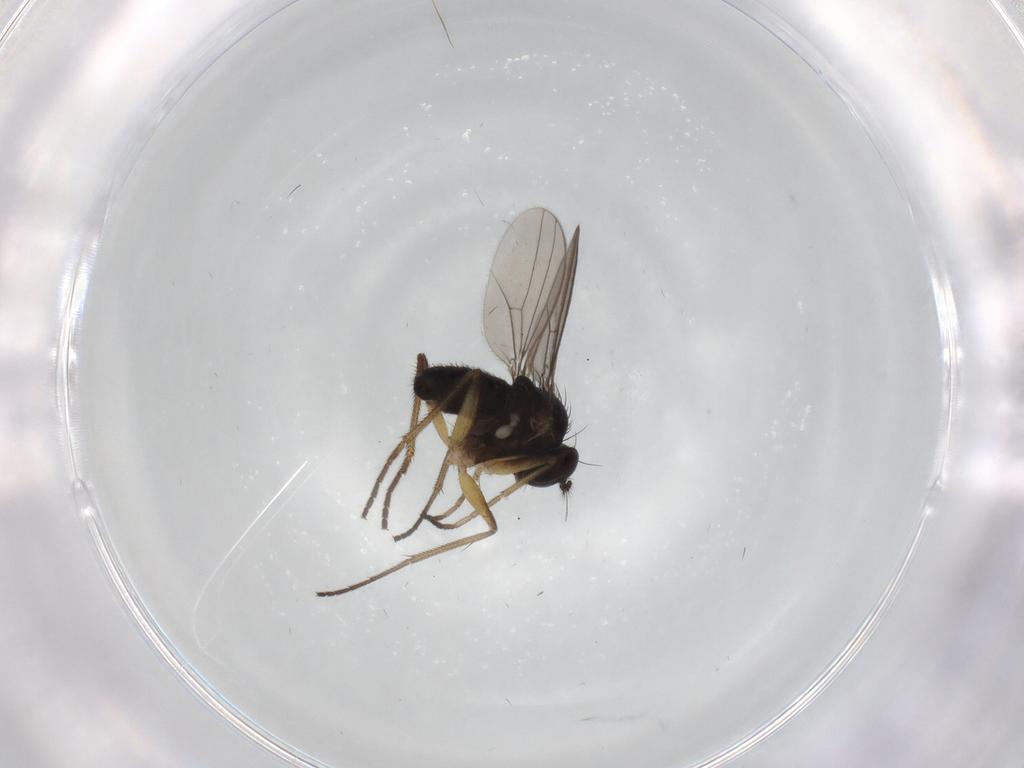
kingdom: Animalia
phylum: Arthropoda
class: Insecta
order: Diptera
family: Dolichopodidae
